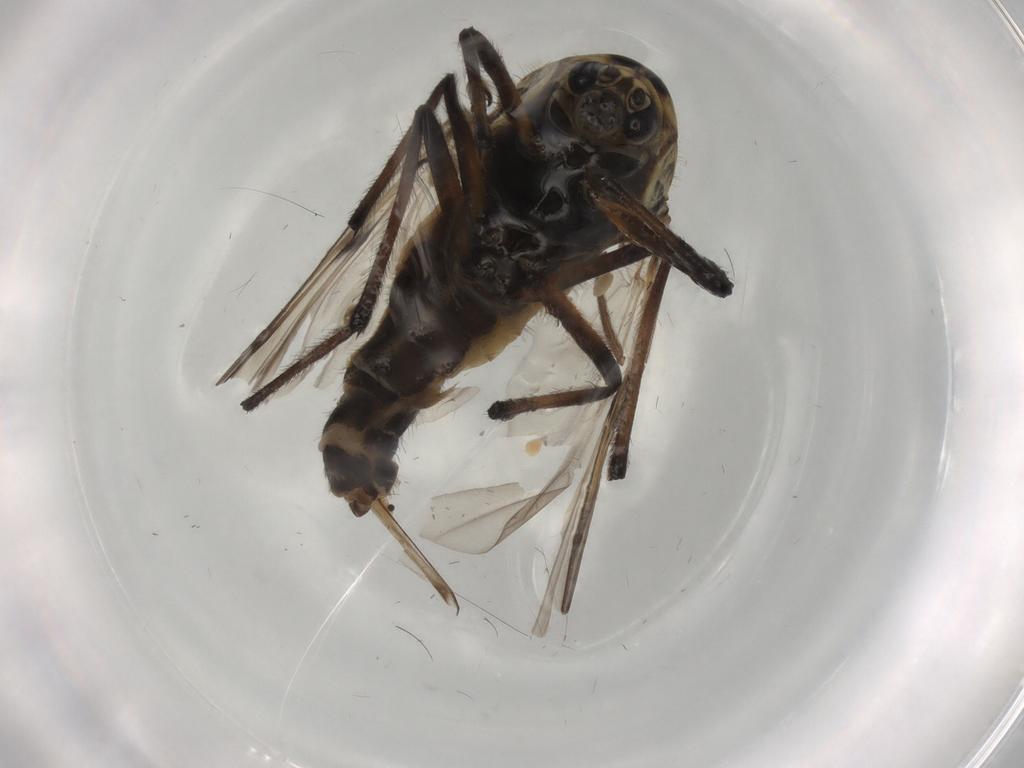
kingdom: Animalia
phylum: Arthropoda
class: Insecta
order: Diptera
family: Chironomidae
